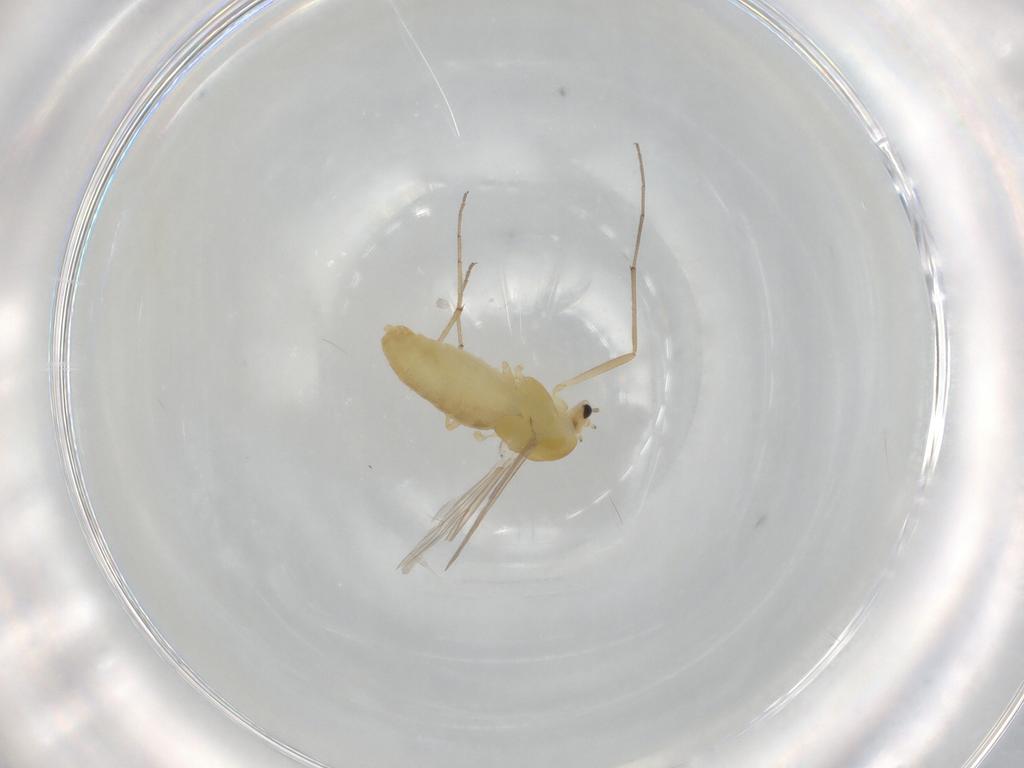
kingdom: Animalia
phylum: Arthropoda
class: Insecta
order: Diptera
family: Chironomidae
